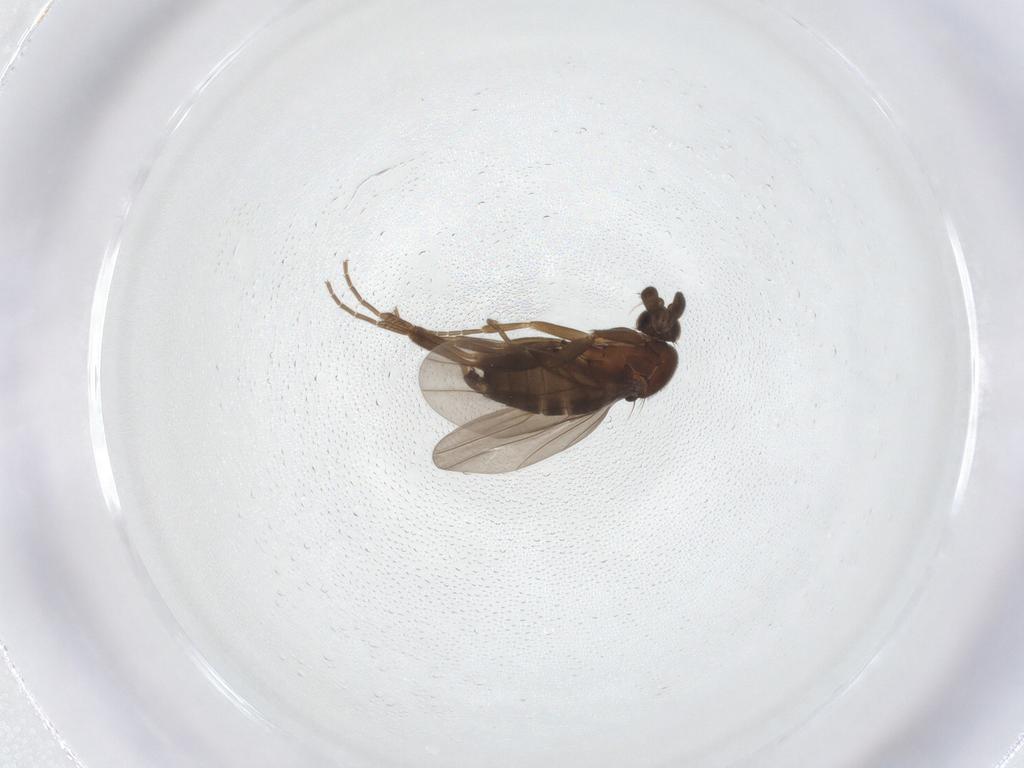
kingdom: Animalia
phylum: Arthropoda
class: Insecta
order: Diptera
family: Phoridae
